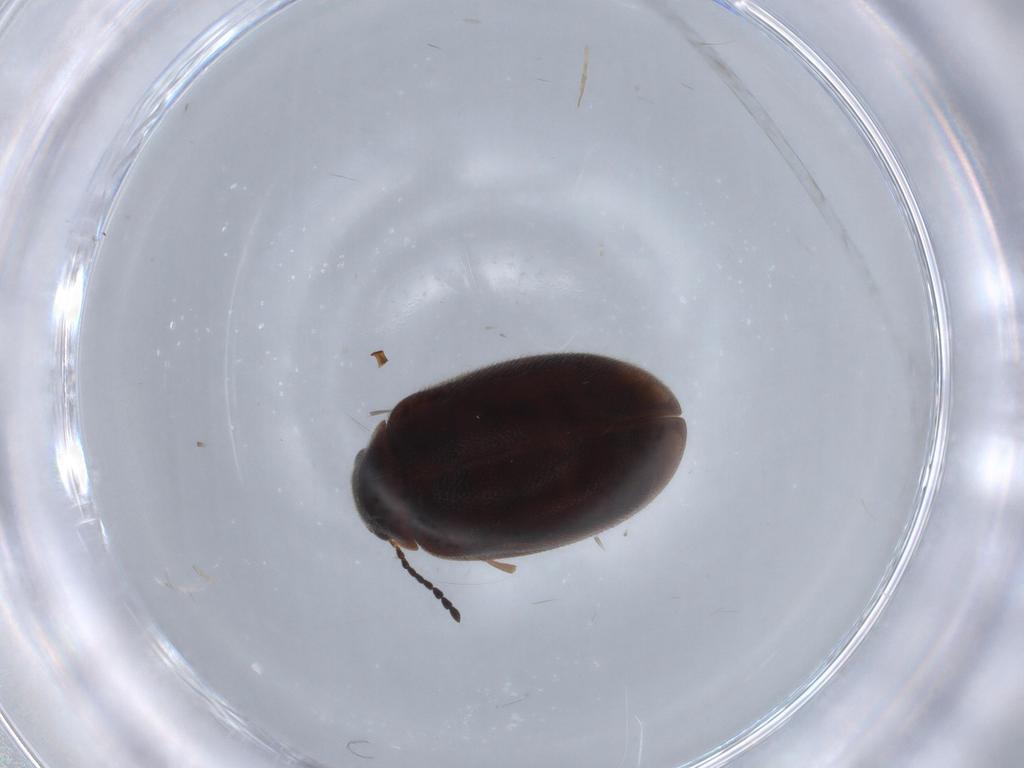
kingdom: Animalia
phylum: Arthropoda
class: Insecta
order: Coleoptera
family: Scirtidae
